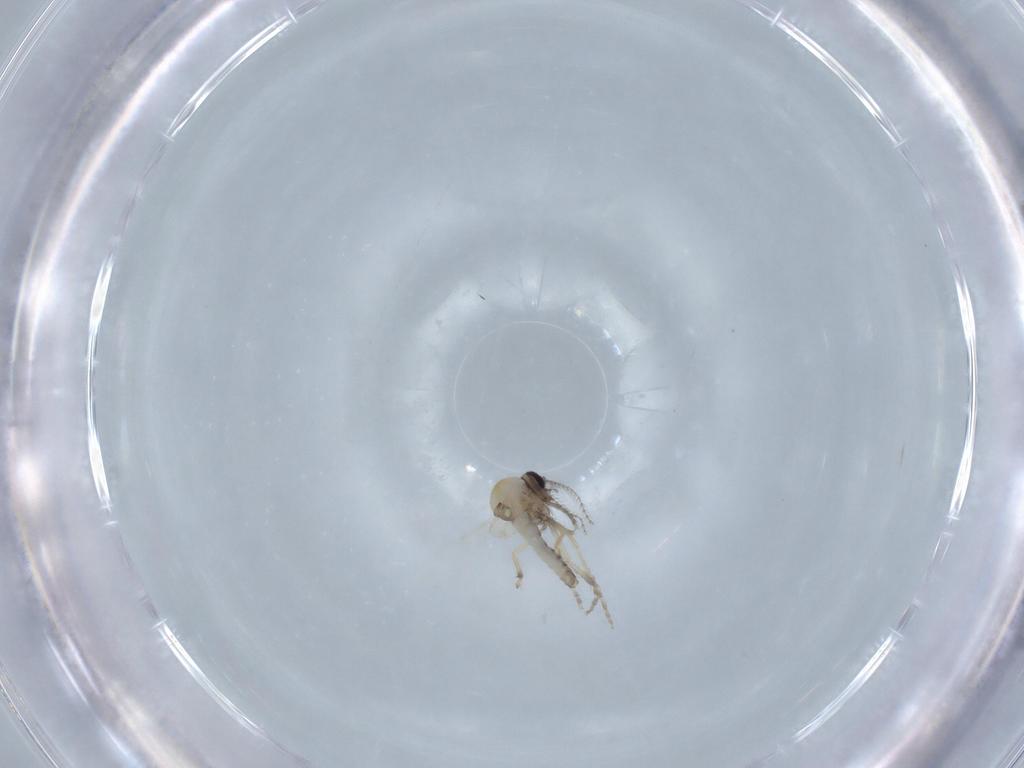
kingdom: Animalia
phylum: Arthropoda
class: Insecta
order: Diptera
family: Ceratopogonidae
